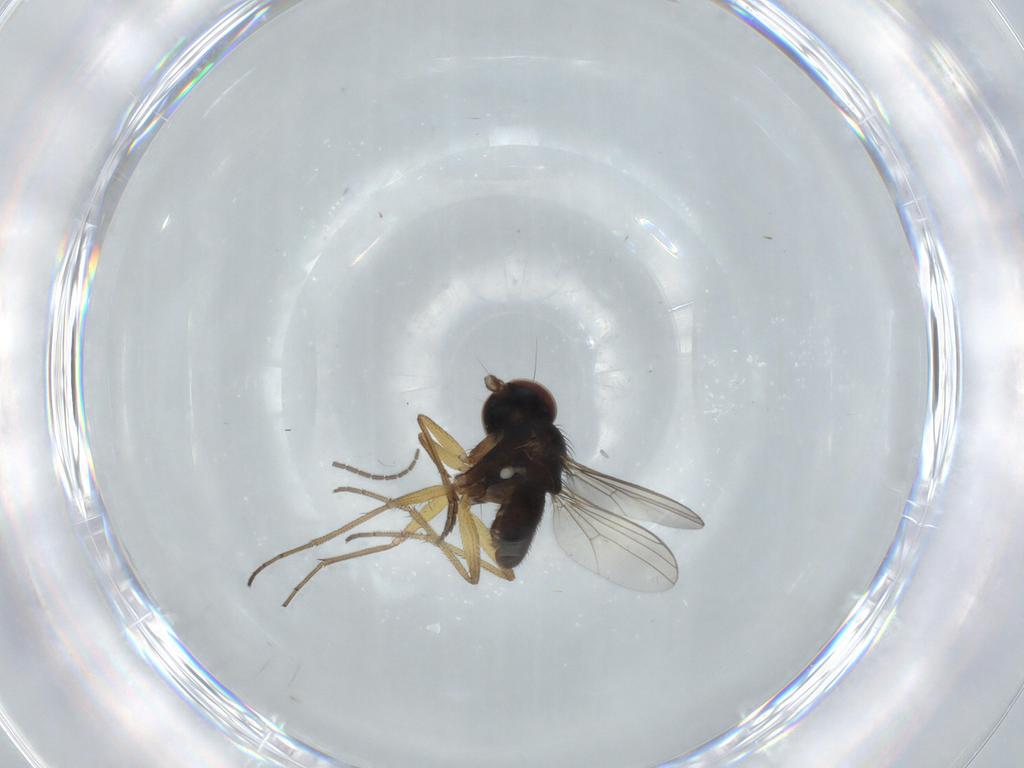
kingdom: Animalia
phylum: Arthropoda
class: Insecta
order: Diptera
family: Dolichopodidae
